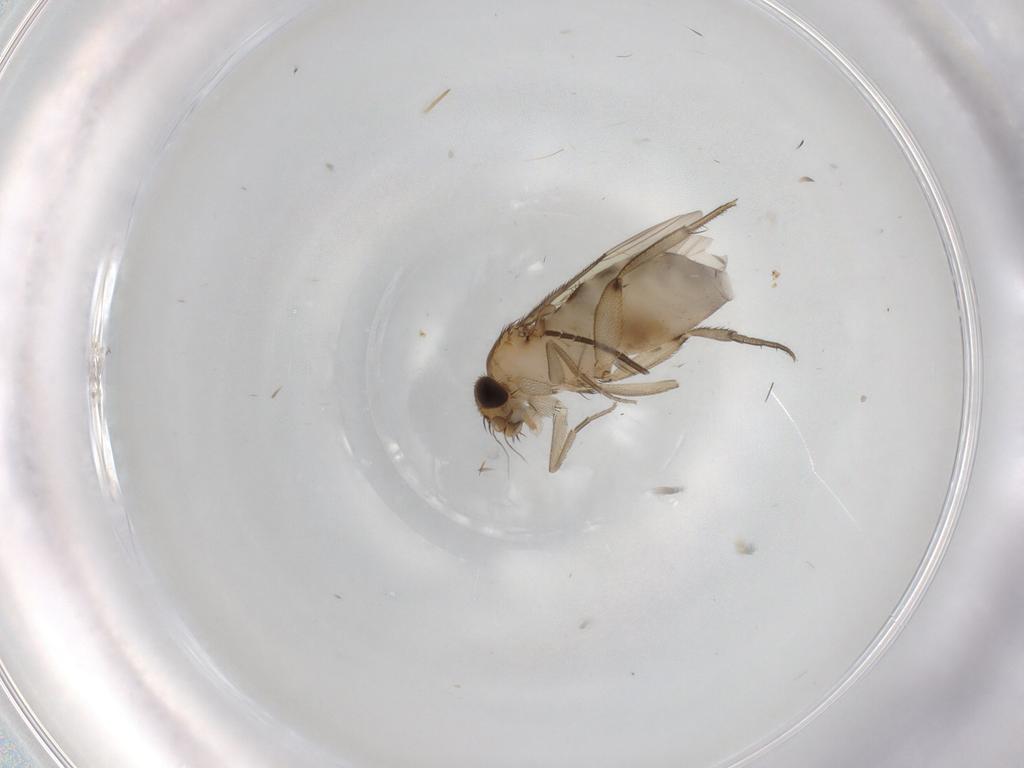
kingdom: Animalia
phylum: Arthropoda
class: Insecta
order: Diptera
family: Phoridae
